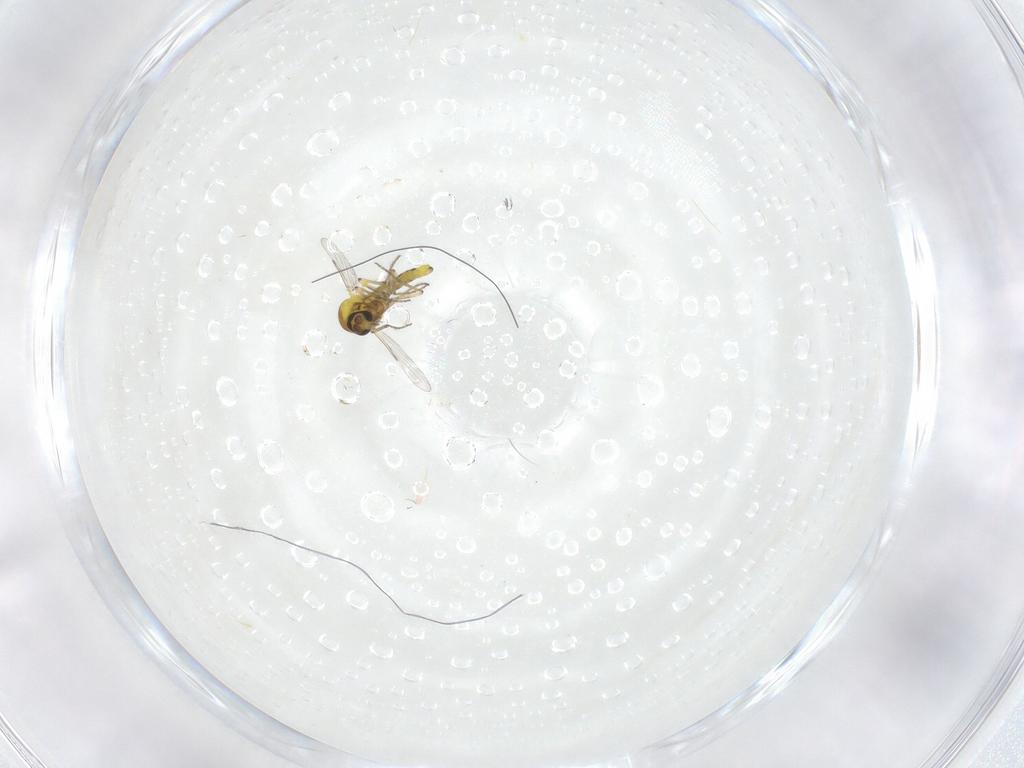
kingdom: Animalia
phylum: Arthropoda
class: Insecta
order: Diptera
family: Ceratopogonidae
